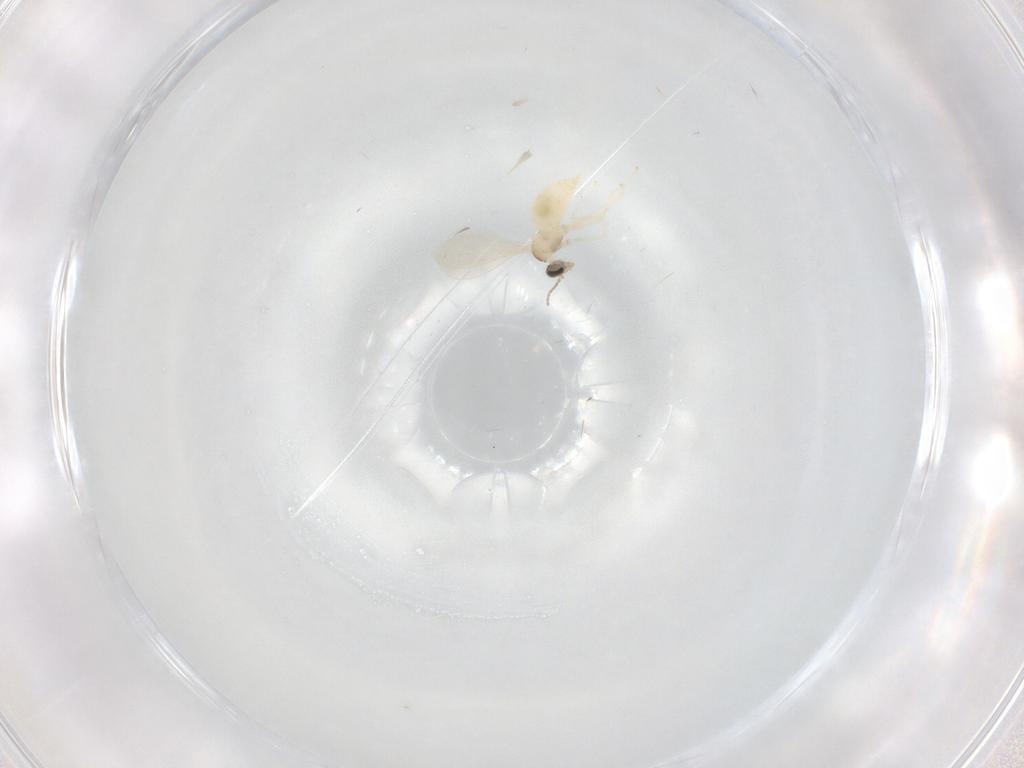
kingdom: Animalia
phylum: Arthropoda
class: Insecta
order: Diptera
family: Cecidomyiidae
